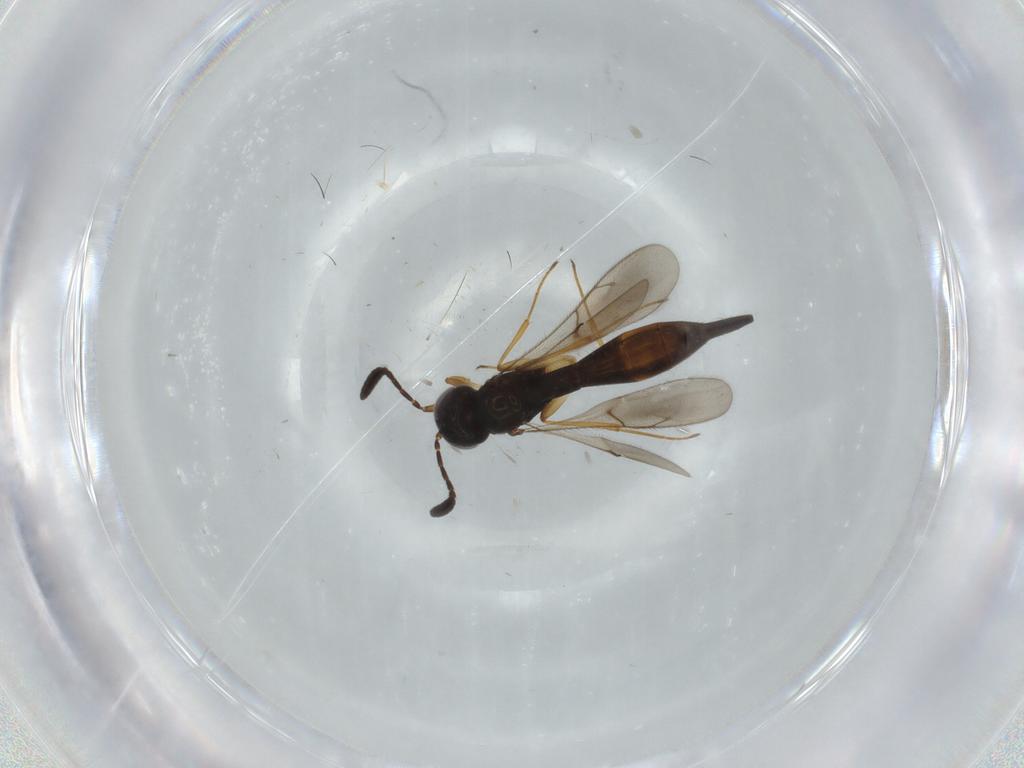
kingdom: Animalia
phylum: Arthropoda
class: Insecta
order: Hymenoptera
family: Scelionidae
